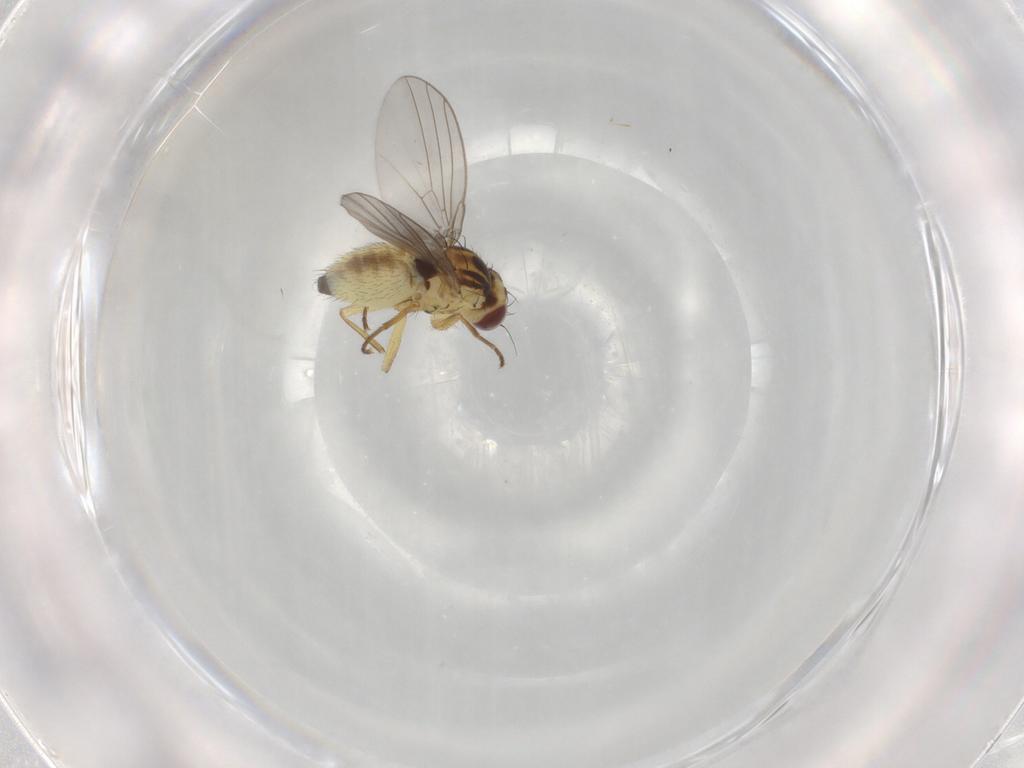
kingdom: Animalia
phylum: Arthropoda
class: Insecta
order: Diptera
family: Agromyzidae
